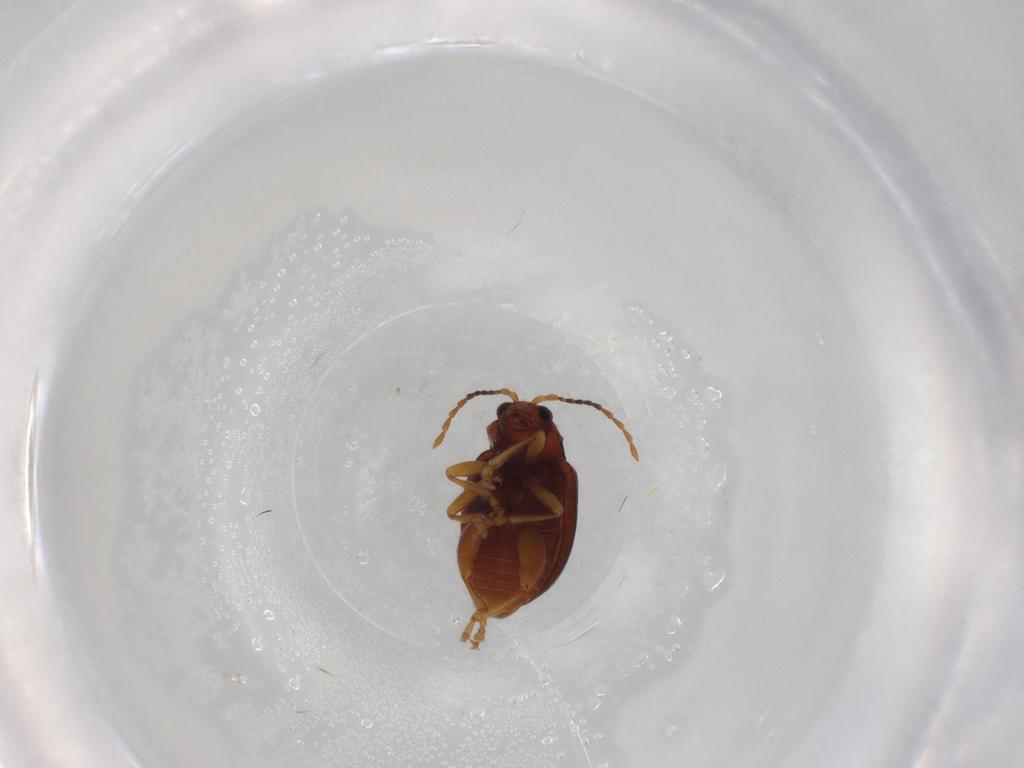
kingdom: Animalia
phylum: Arthropoda
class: Insecta
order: Coleoptera
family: Chrysomelidae
